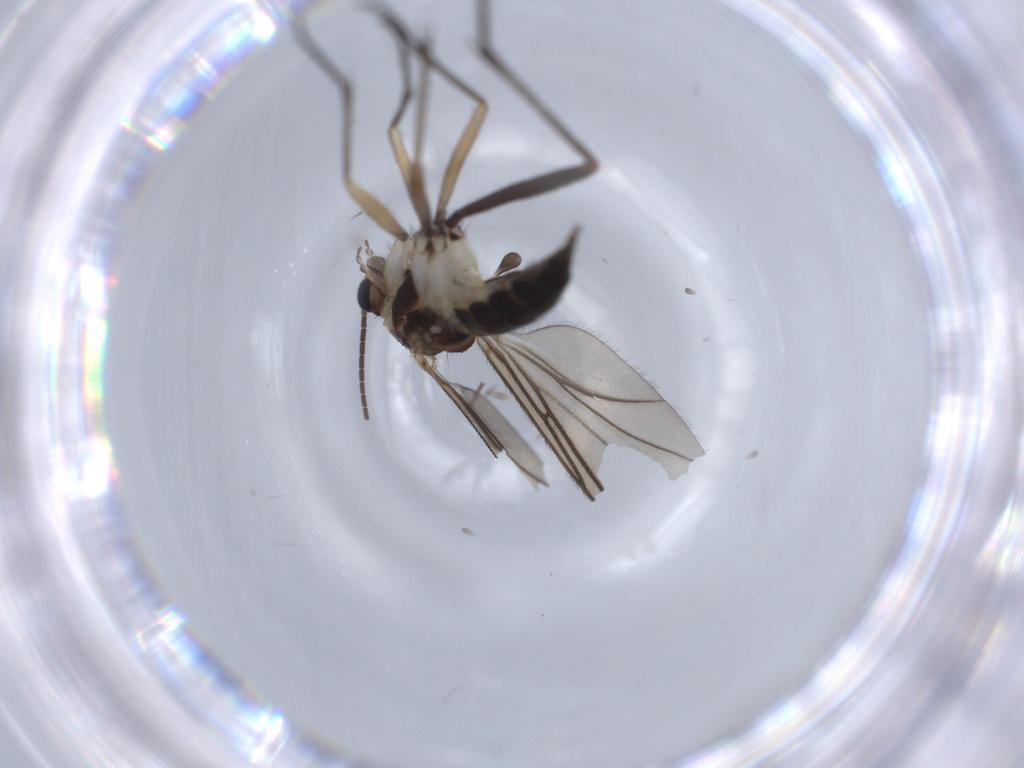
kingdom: Animalia
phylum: Arthropoda
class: Insecta
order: Diptera
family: Sciaridae
